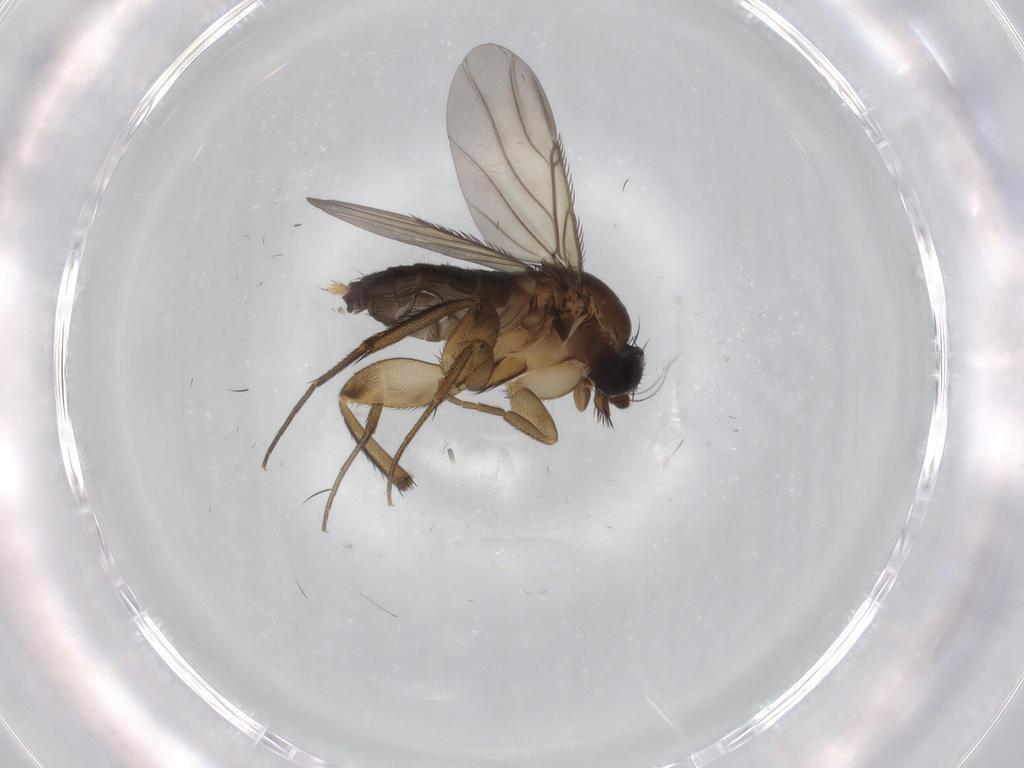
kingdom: Animalia
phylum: Arthropoda
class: Insecta
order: Diptera
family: Phoridae
